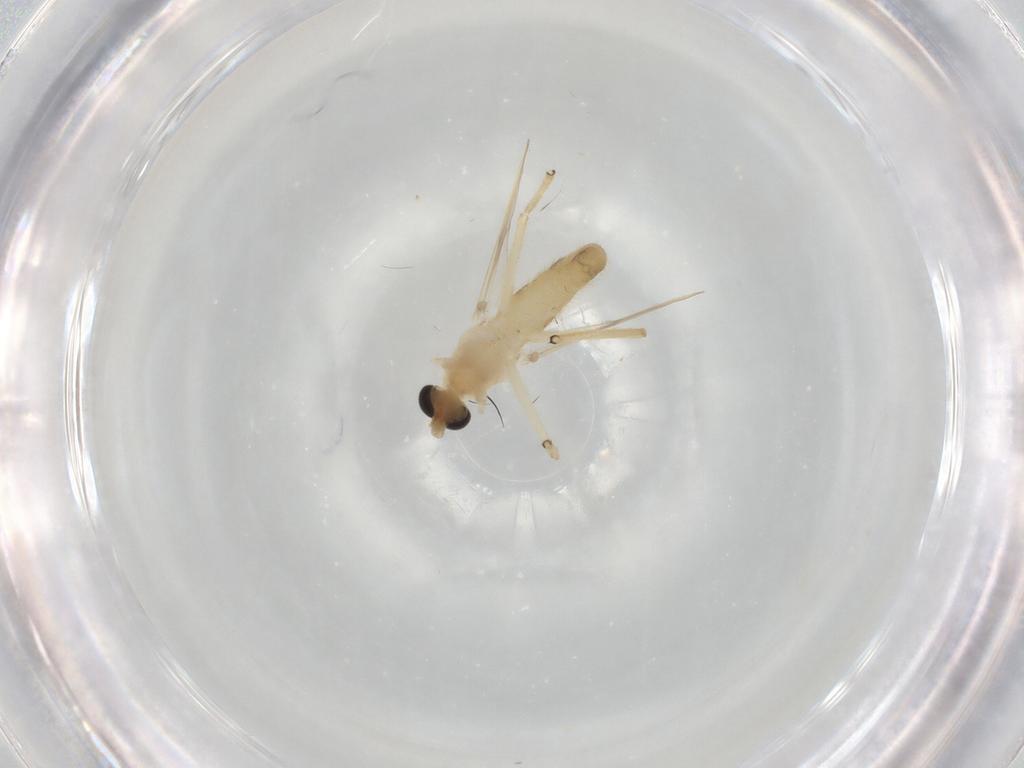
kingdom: Animalia
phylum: Arthropoda
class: Insecta
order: Diptera
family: Chironomidae
